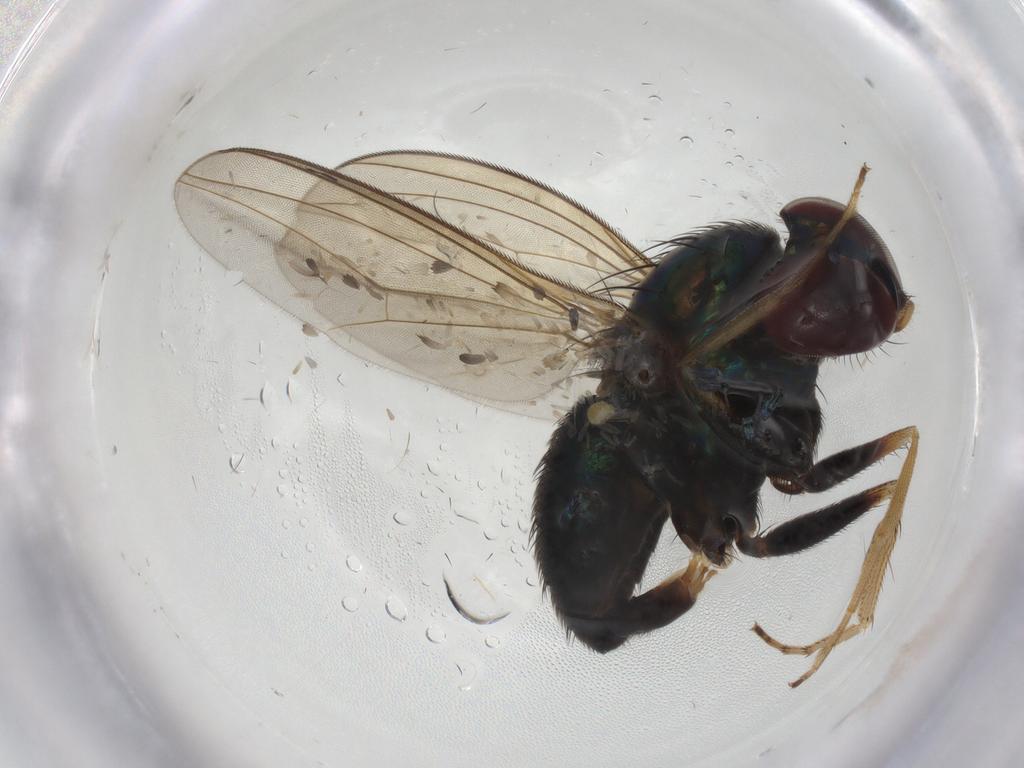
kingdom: Animalia
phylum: Arthropoda
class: Insecta
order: Diptera
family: Dolichopodidae
